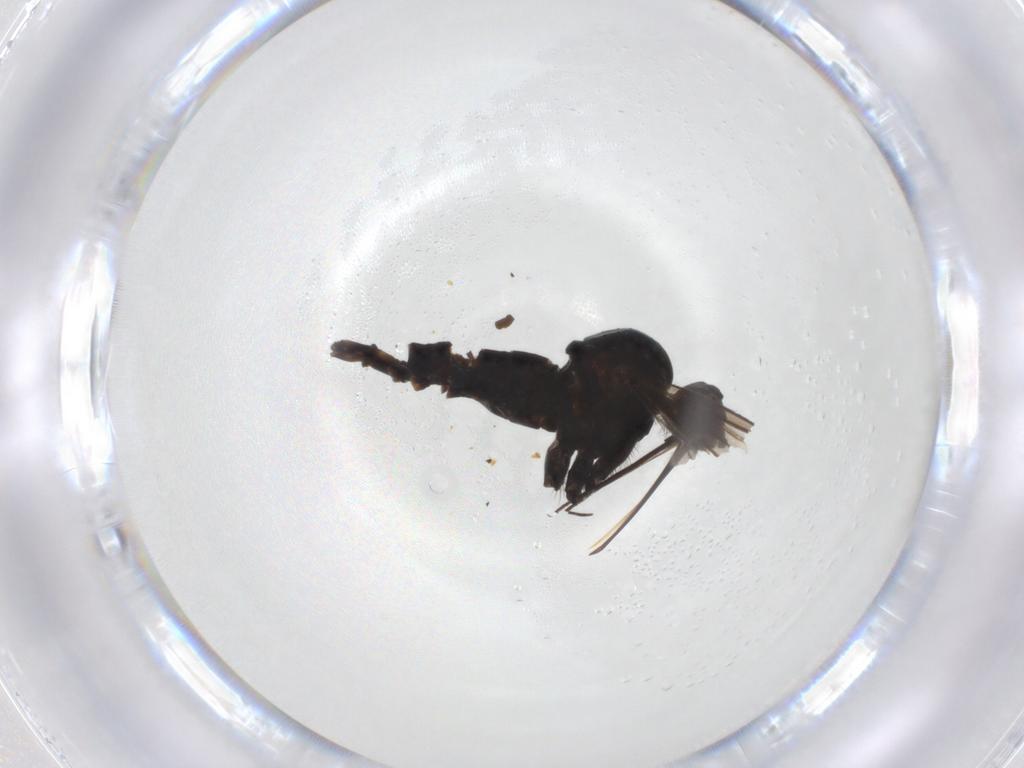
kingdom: Animalia
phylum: Arthropoda
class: Insecta
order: Diptera
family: Empididae
